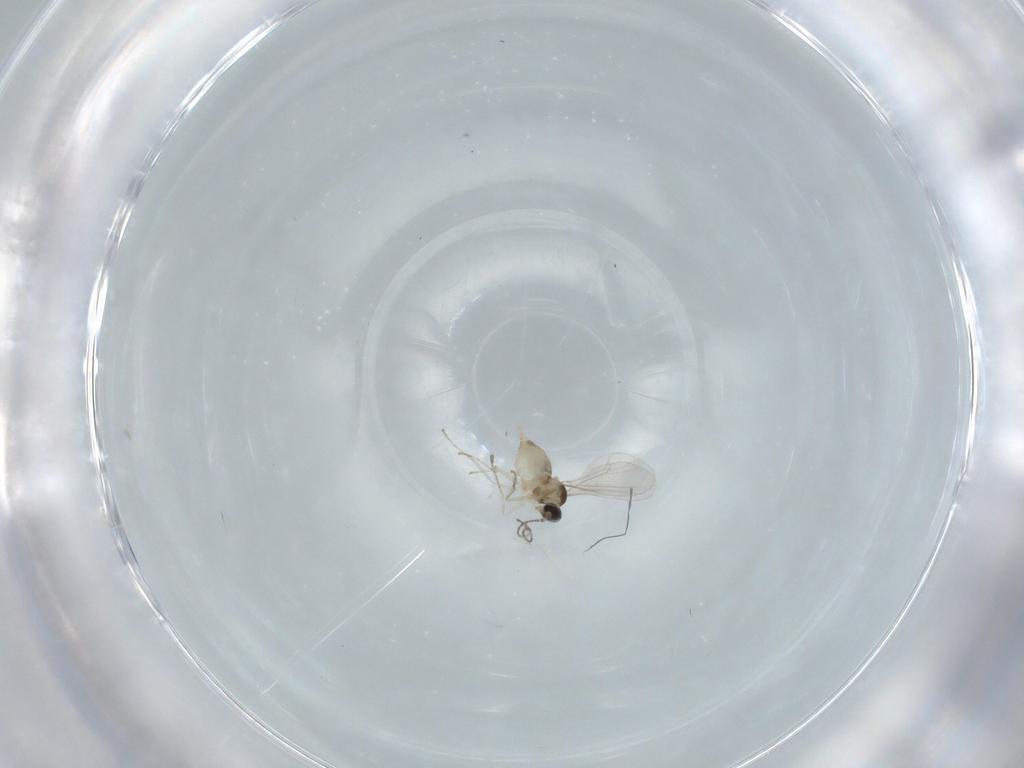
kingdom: Animalia
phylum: Arthropoda
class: Insecta
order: Diptera
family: Cecidomyiidae
